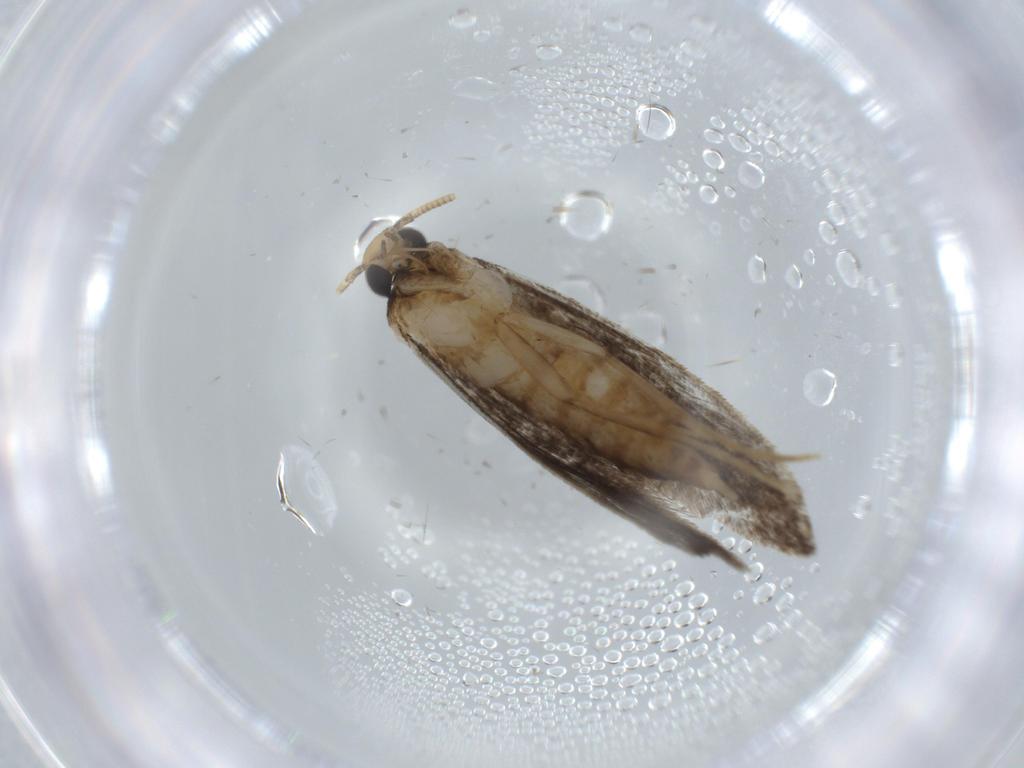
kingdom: Animalia
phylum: Arthropoda
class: Insecta
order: Lepidoptera
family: Tineidae
